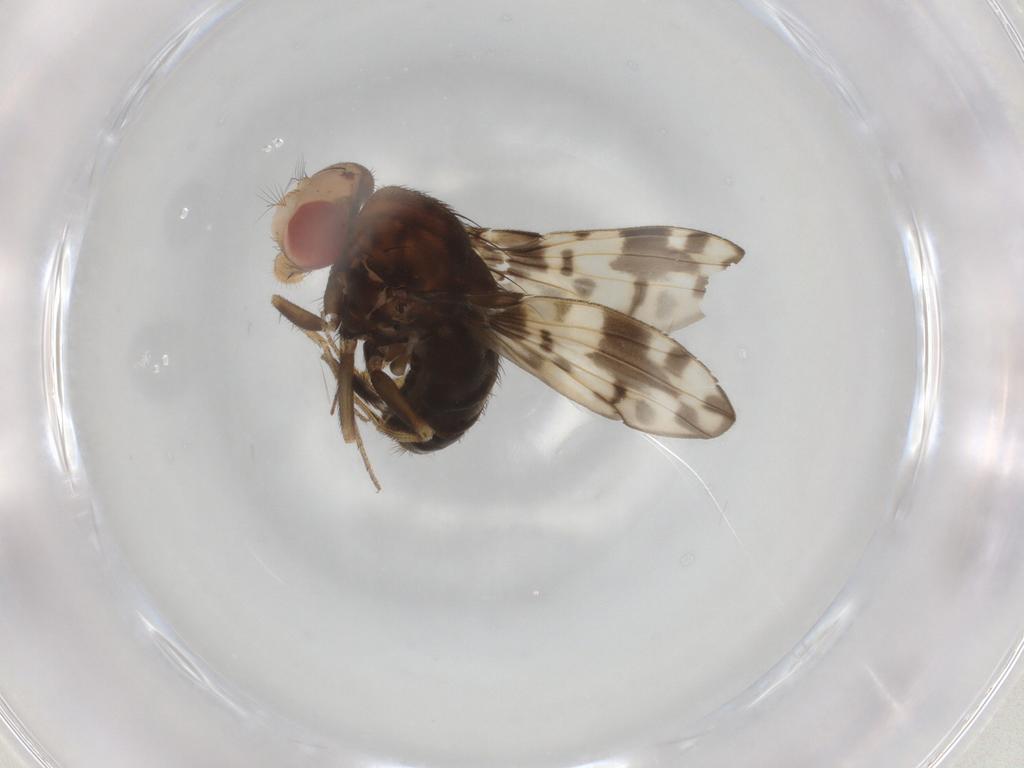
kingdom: Animalia
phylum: Arthropoda
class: Insecta
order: Diptera
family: Drosophilidae
